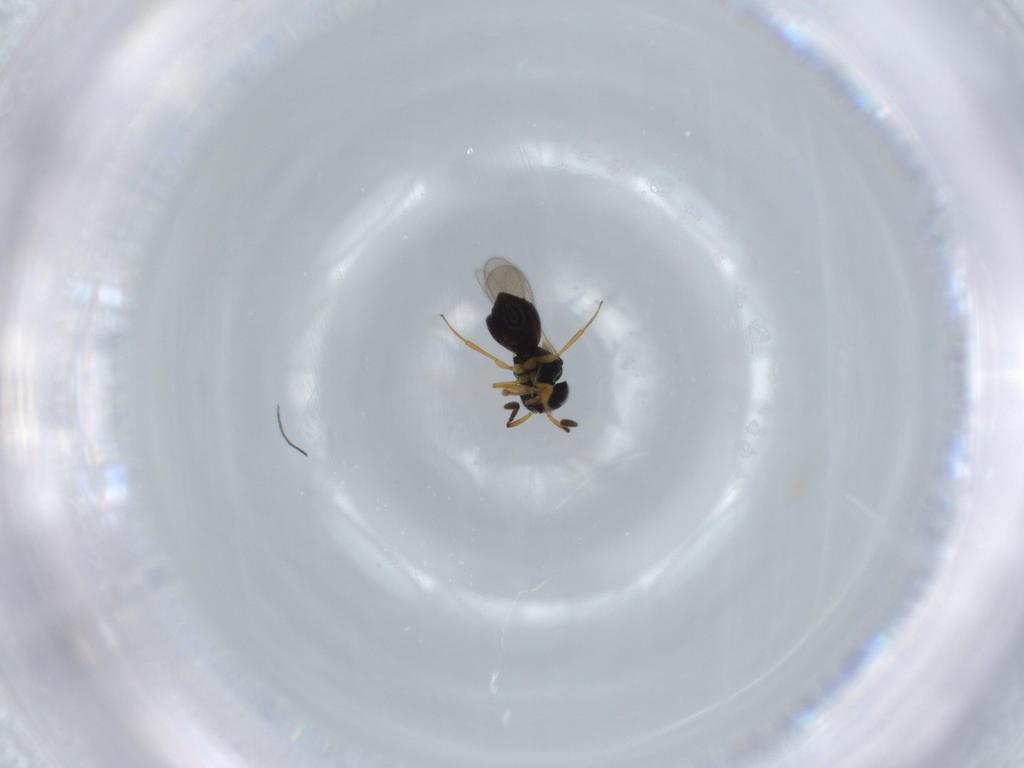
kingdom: Animalia
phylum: Arthropoda
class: Insecta
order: Hymenoptera
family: Scelionidae
